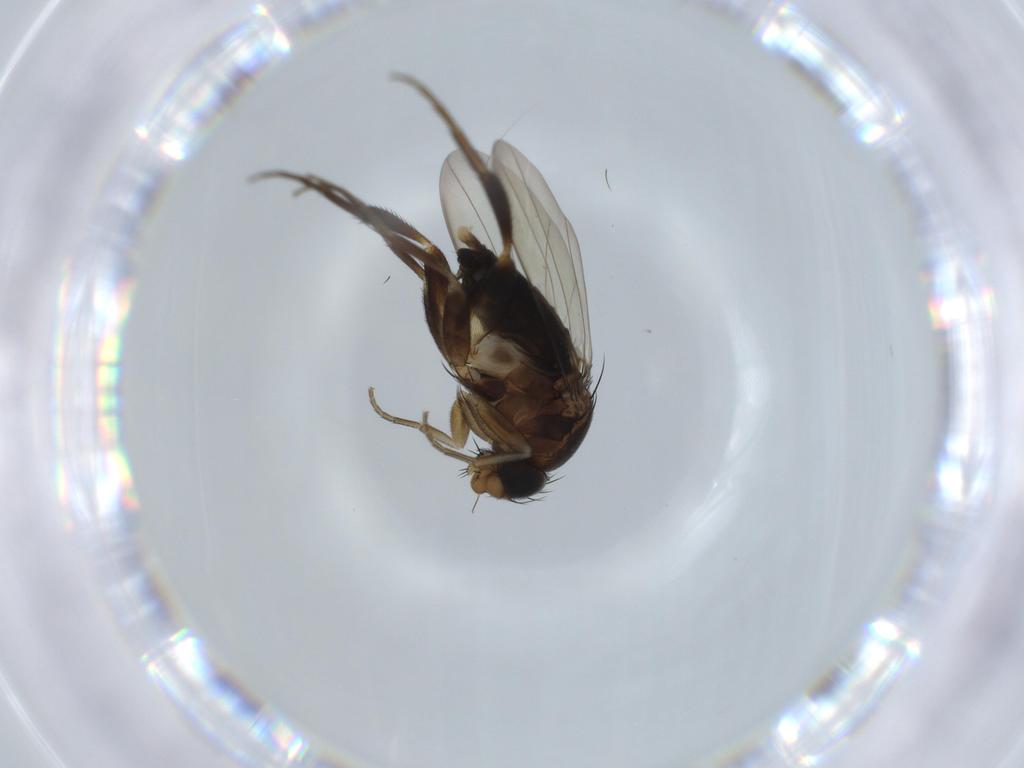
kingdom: Animalia
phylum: Arthropoda
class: Insecta
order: Diptera
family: Phoridae
